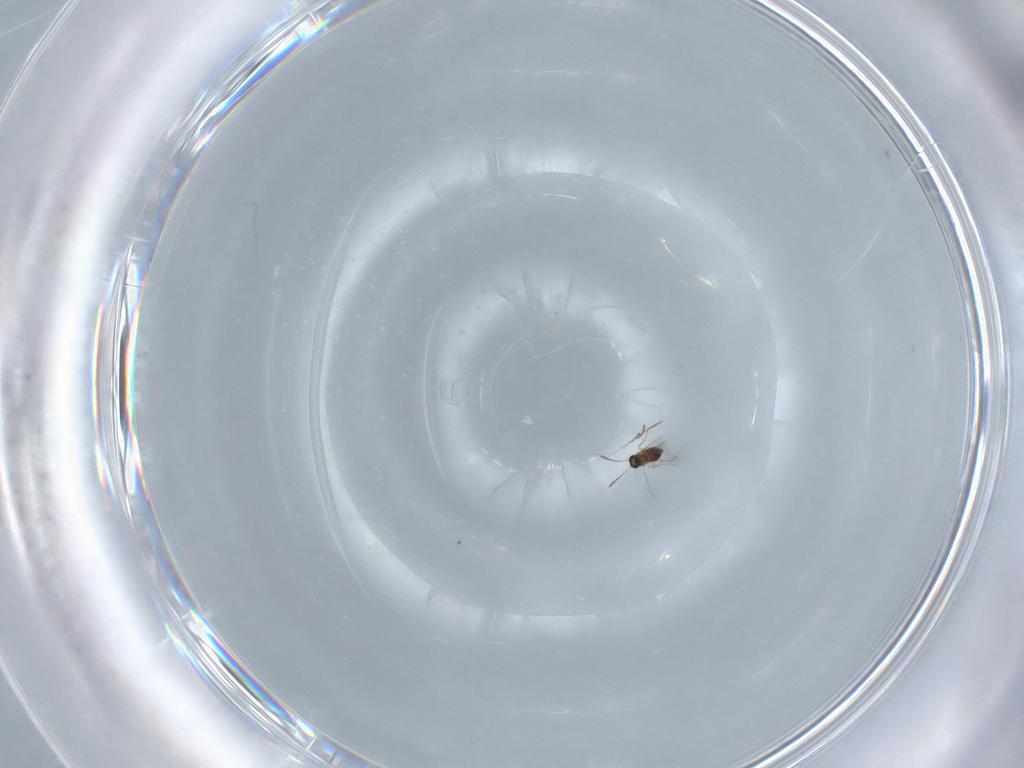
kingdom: Animalia
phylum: Arthropoda
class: Insecta
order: Hymenoptera
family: Mymaridae
